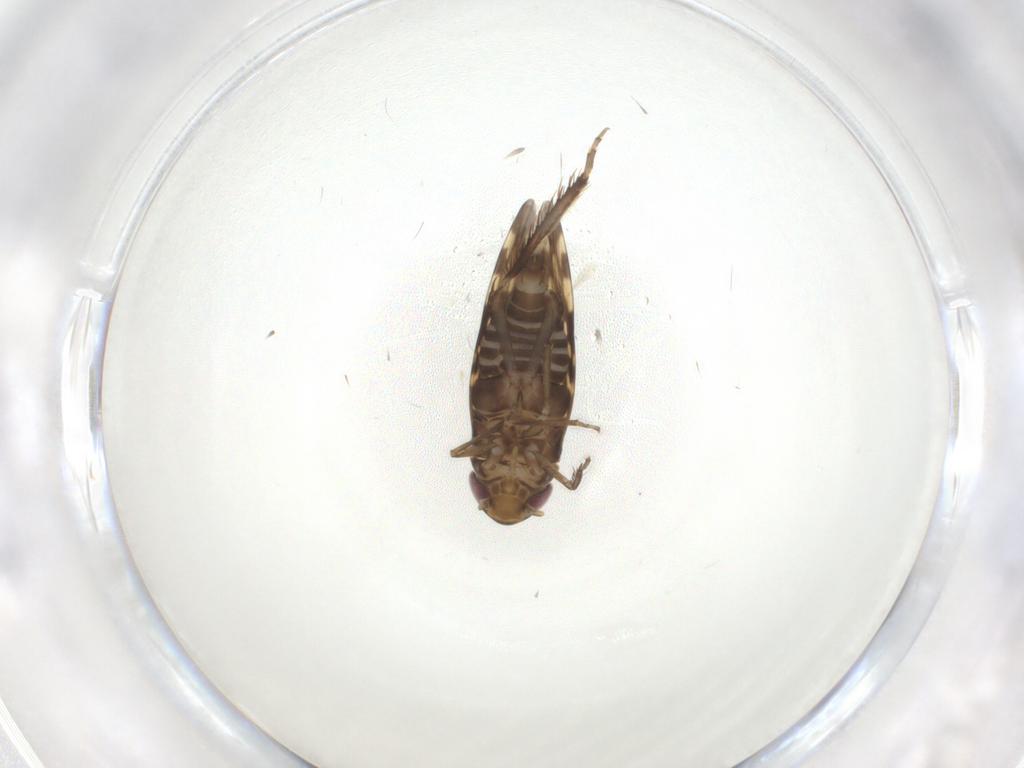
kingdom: Animalia
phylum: Arthropoda
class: Insecta
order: Hemiptera
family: Cicadellidae
